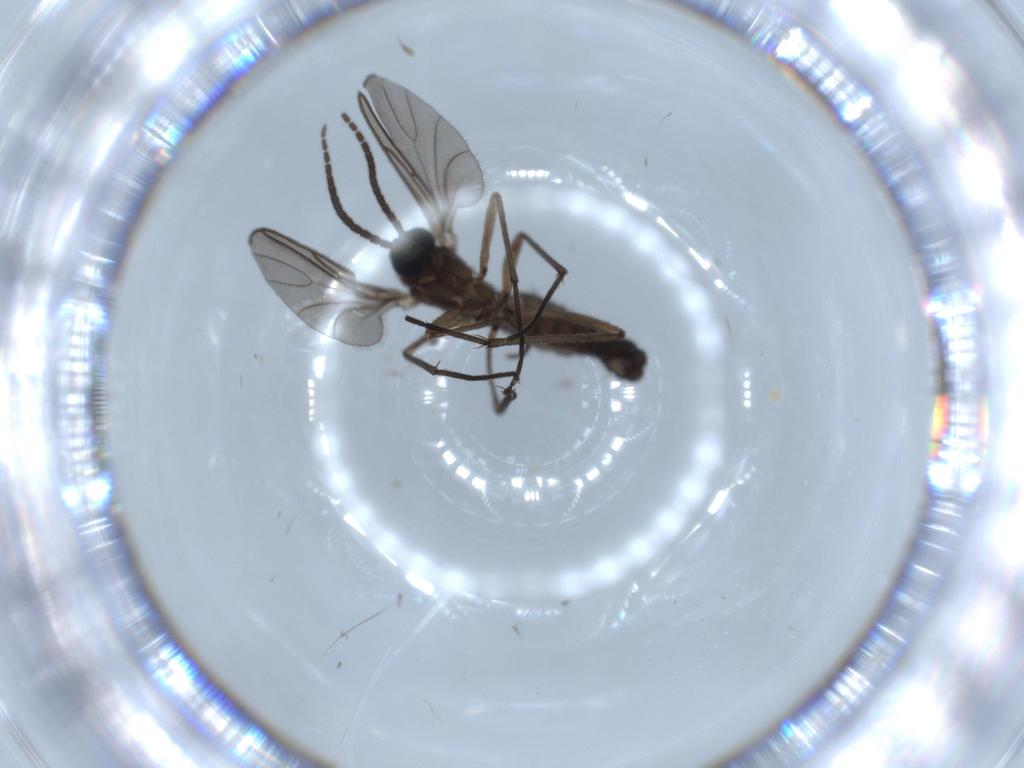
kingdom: Animalia
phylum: Arthropoda
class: Insecta
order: Diptera
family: Sciaridae
